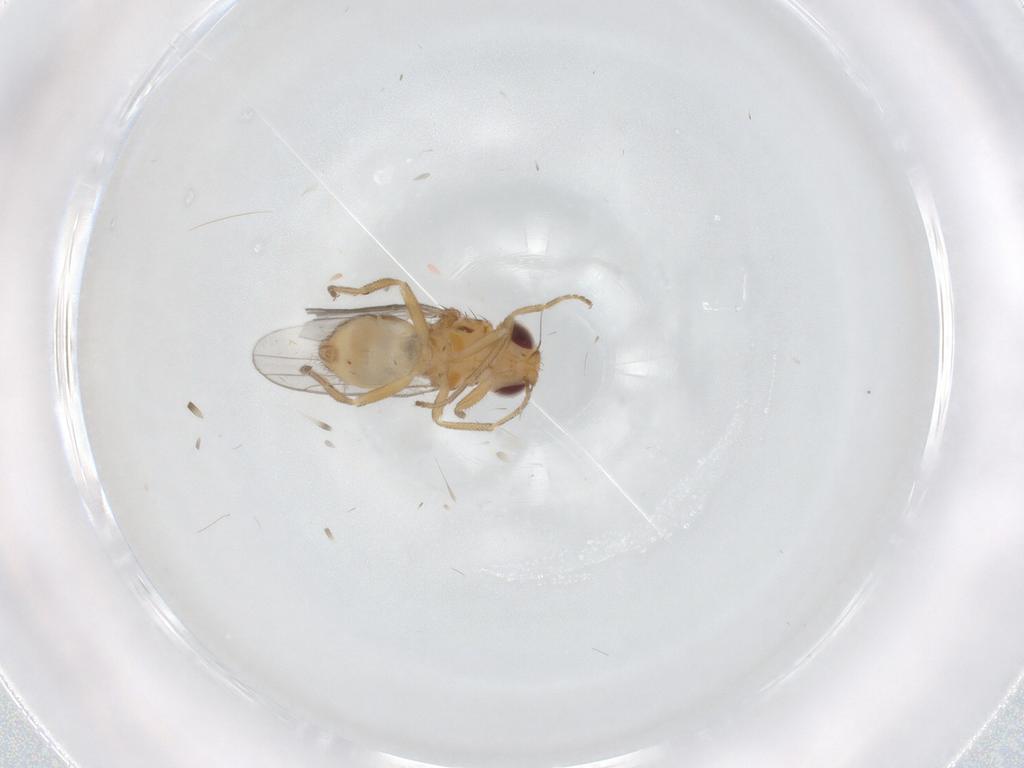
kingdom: Animalia
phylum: Arthropoda
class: Insecta
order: Diptera
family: Chloropidae
